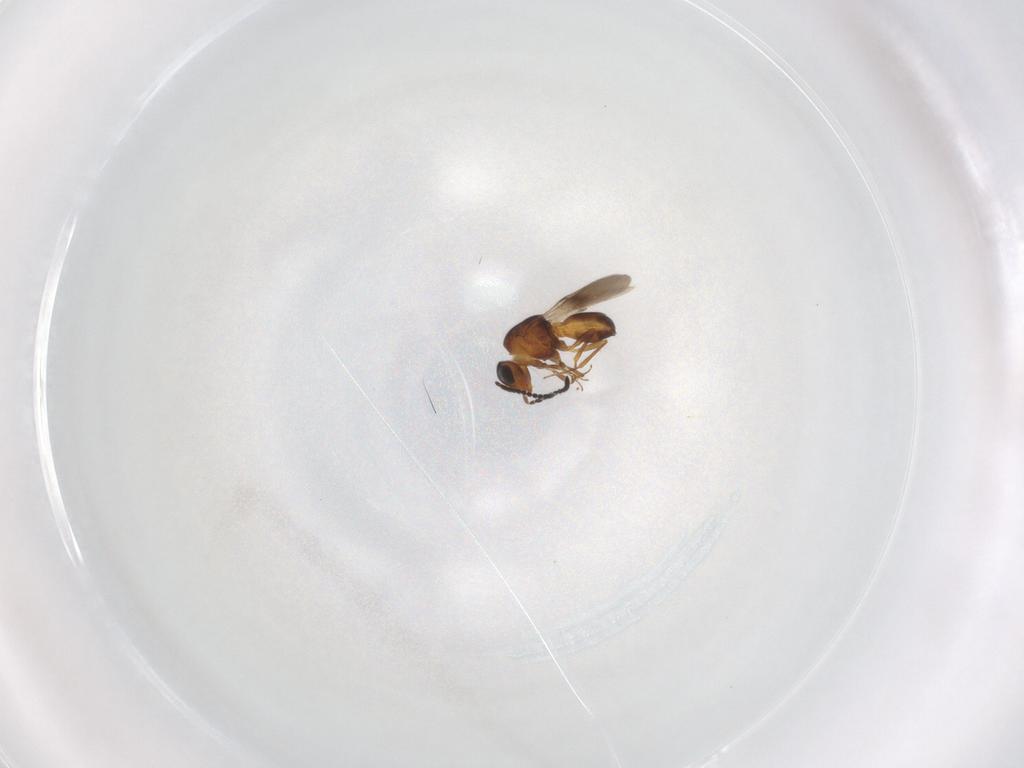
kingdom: Animalia
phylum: Arthropoda
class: Insecta
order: Hymenoptera
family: Scelionidae
